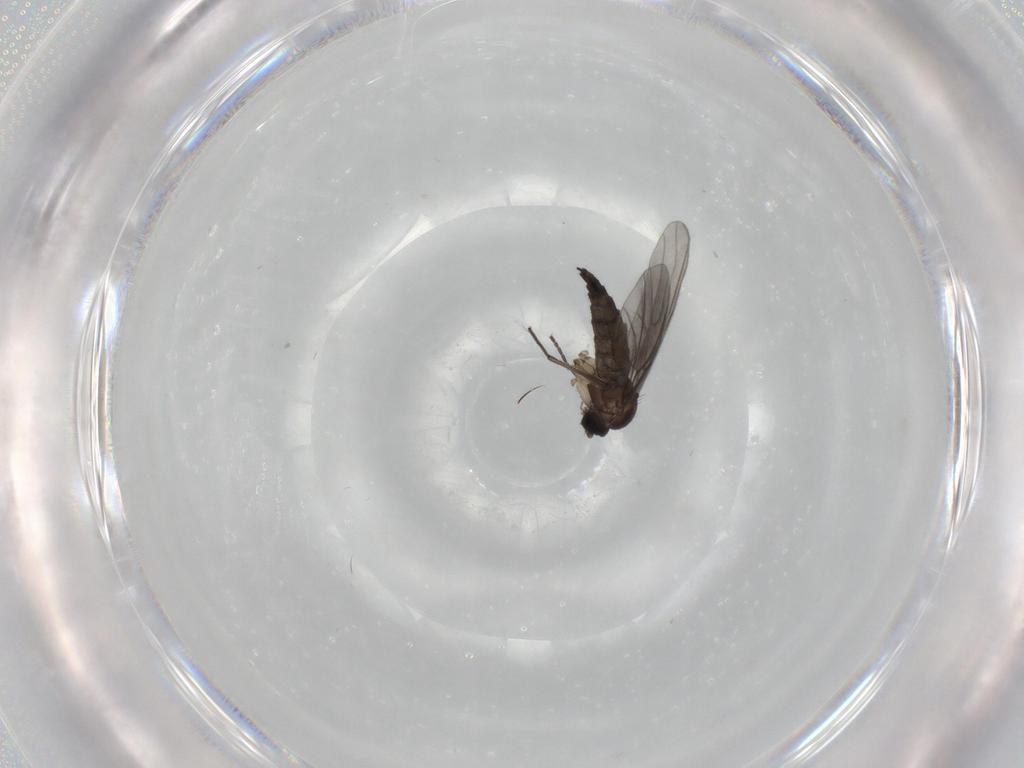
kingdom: Animalia
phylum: Arthropoda
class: Insecta
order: Diptera
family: Sciaridae
